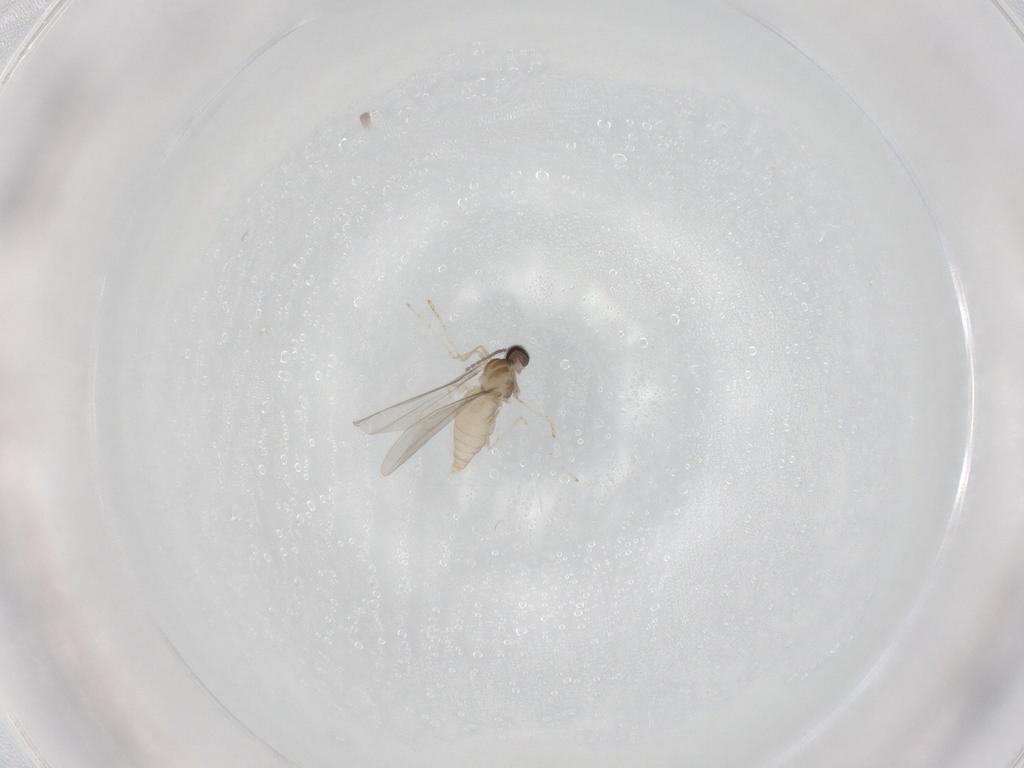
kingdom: Animalia
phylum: Arthropoda
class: Insecta
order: Diptera
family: Cecidomyiidae
